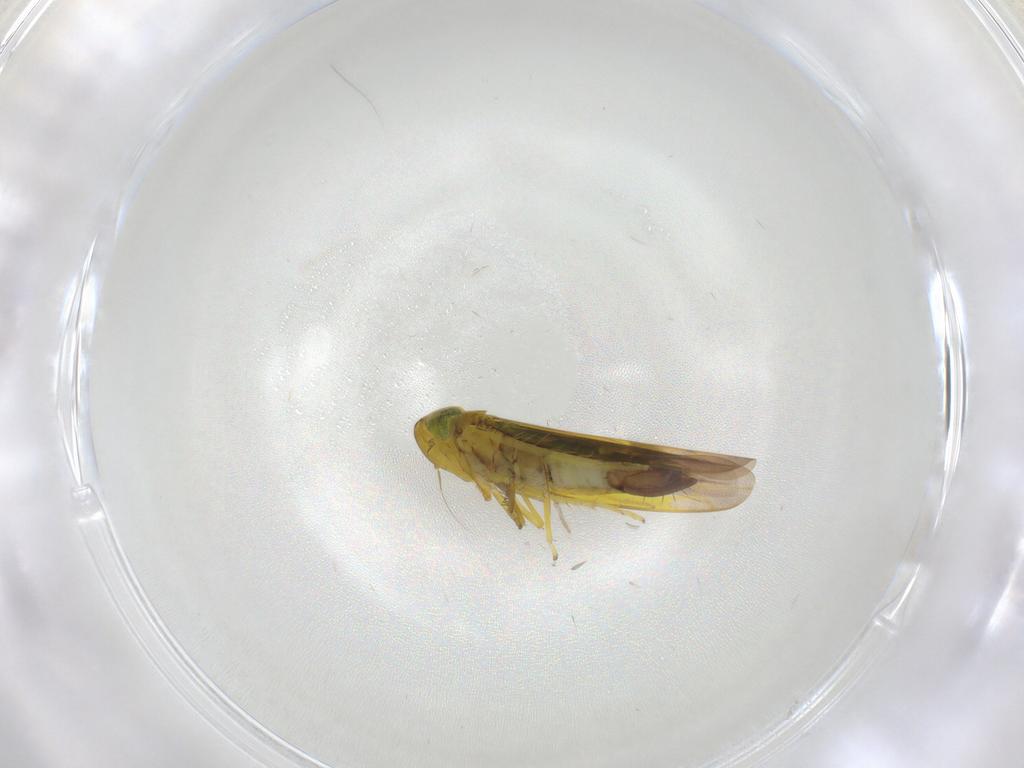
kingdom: Animalia
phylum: Arthropoda
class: Insecta
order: Hemiptera
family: Cicadellidae
